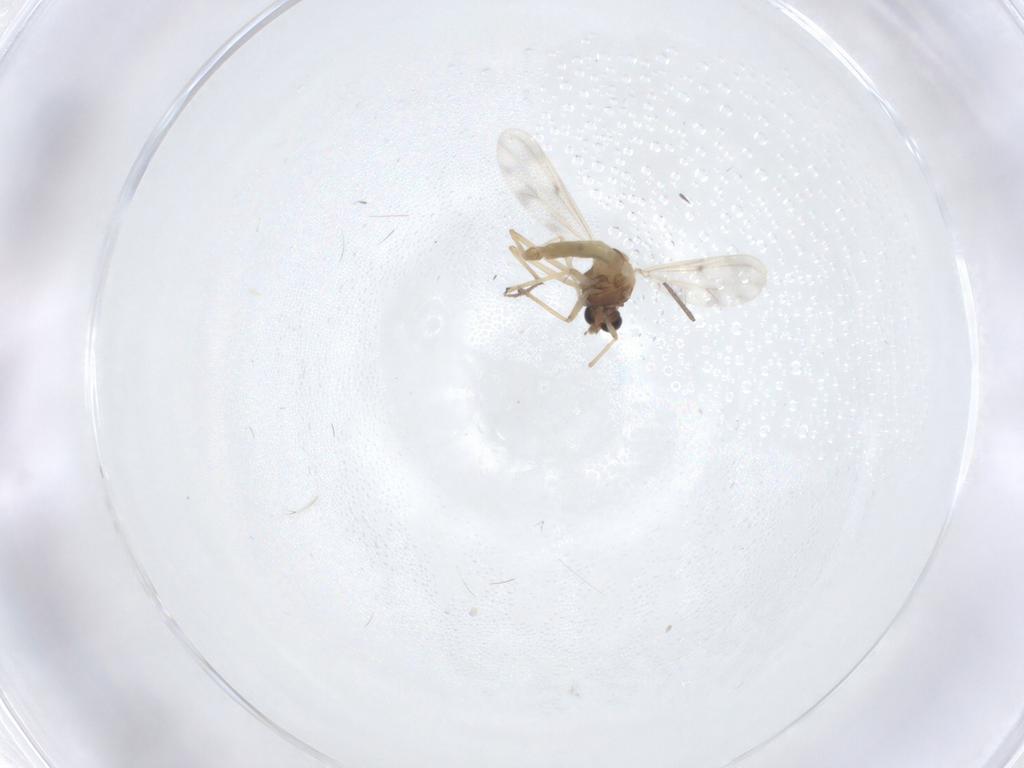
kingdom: Animalia
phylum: Arthropoda
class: Insecta
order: Diptera
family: Chironomidae
